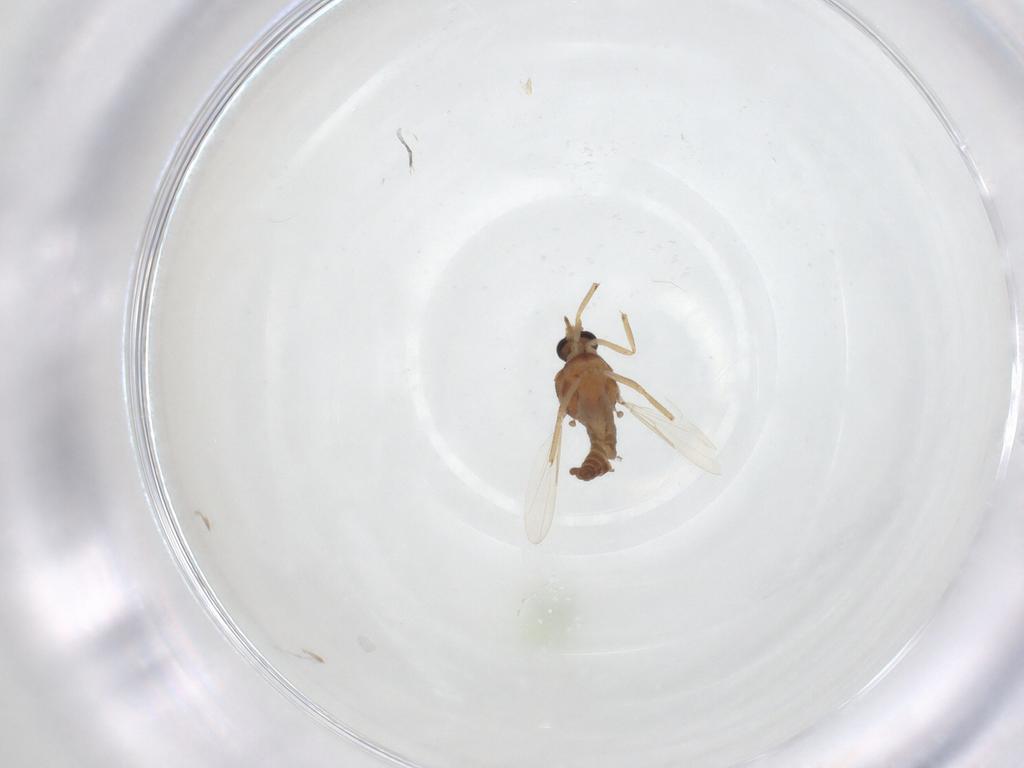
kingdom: Animalia
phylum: Arthropoda
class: Insecta
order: Diptera
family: Ceratopogonidae
